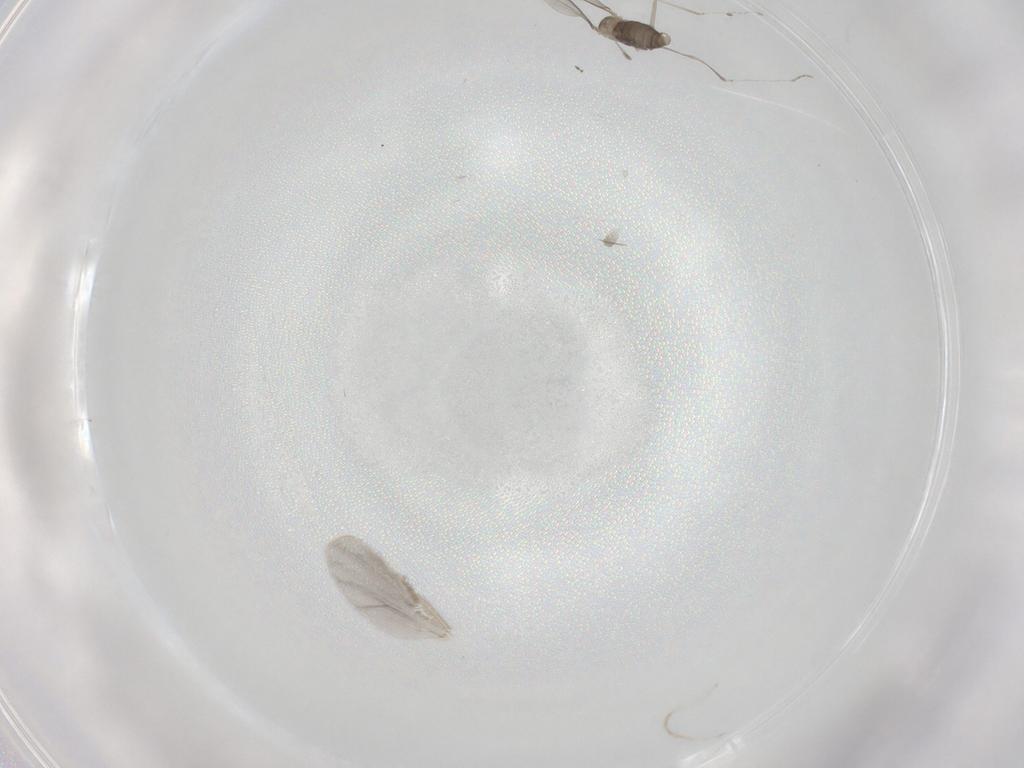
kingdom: Animalia
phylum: Arthropoda
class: Insecta
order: Diptera
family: Cecidomyiidae
